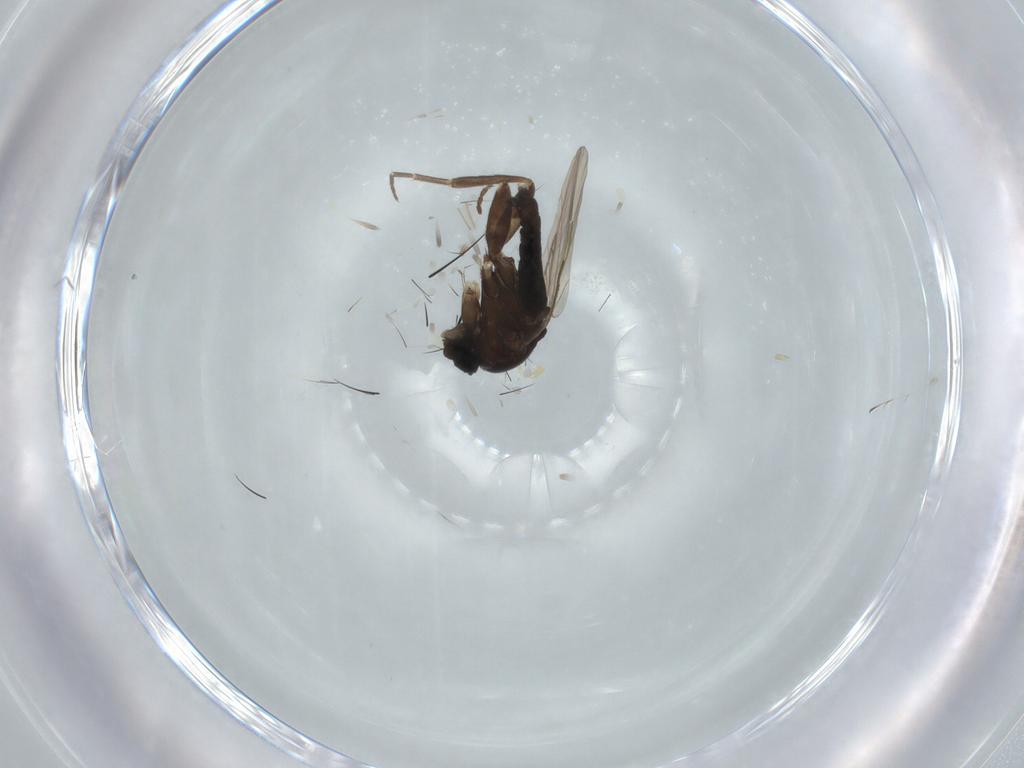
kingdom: Animalia
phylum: Arthropoda
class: Insecta
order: Diptera
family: Phoridae
